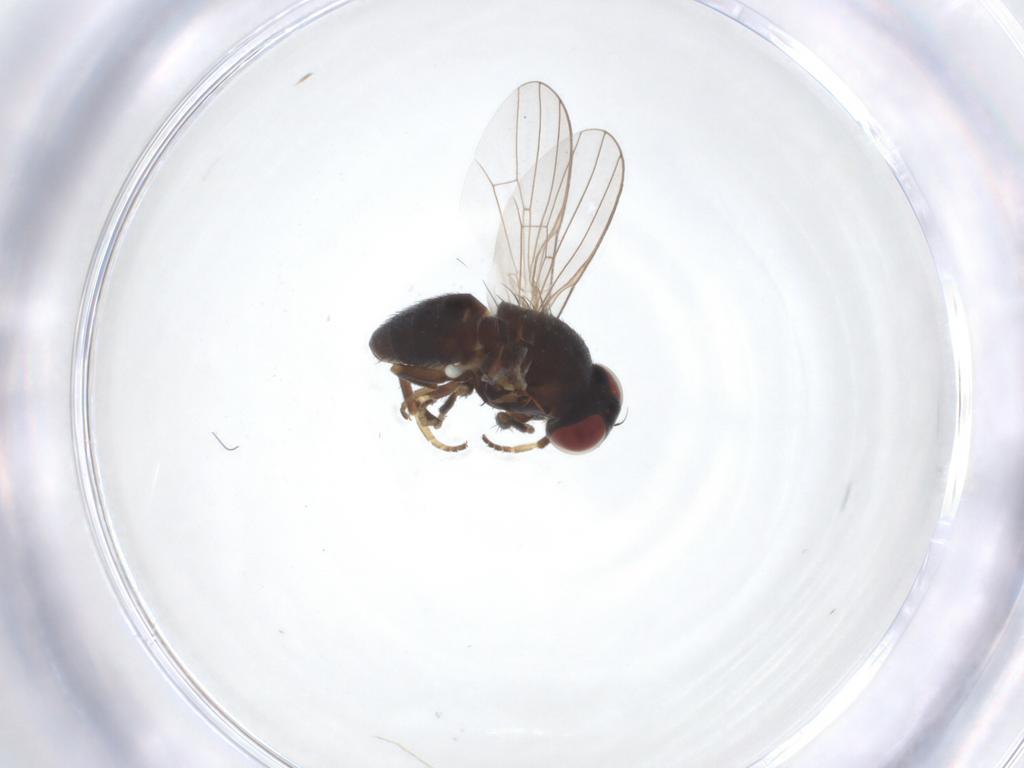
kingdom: Animalia
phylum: Arthropoda
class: Insecta
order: Diptera
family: Chamaemyiidae
